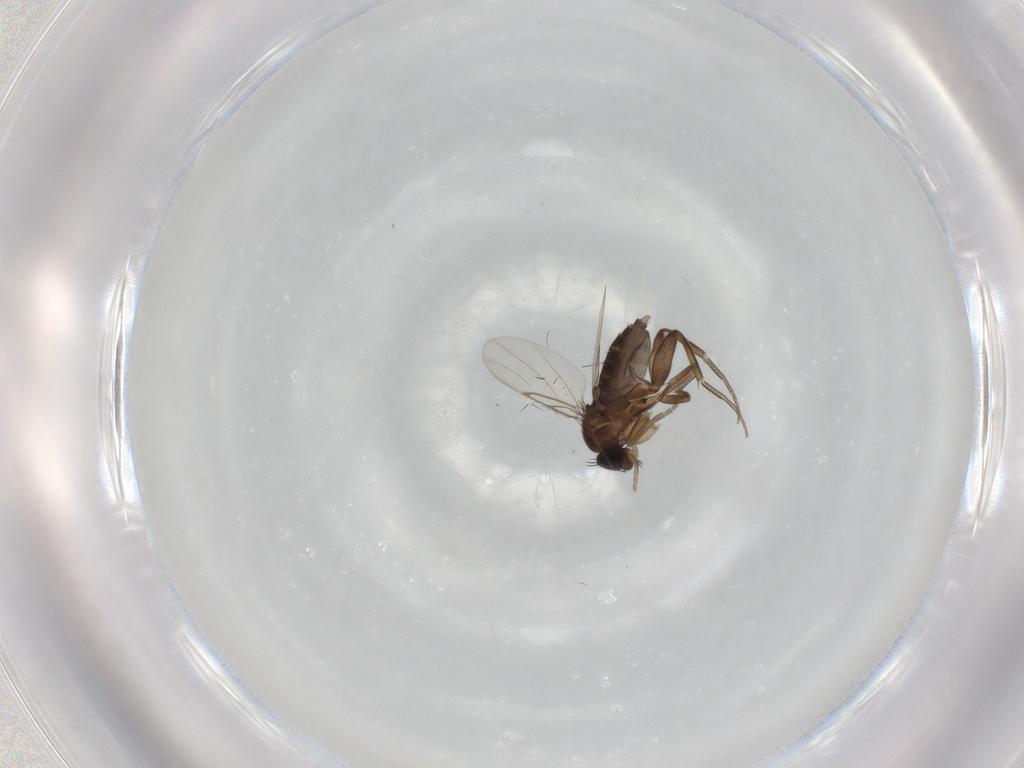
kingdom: Animalia
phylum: Arthropoda
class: Insecta
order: Diptera
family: Phoridae
